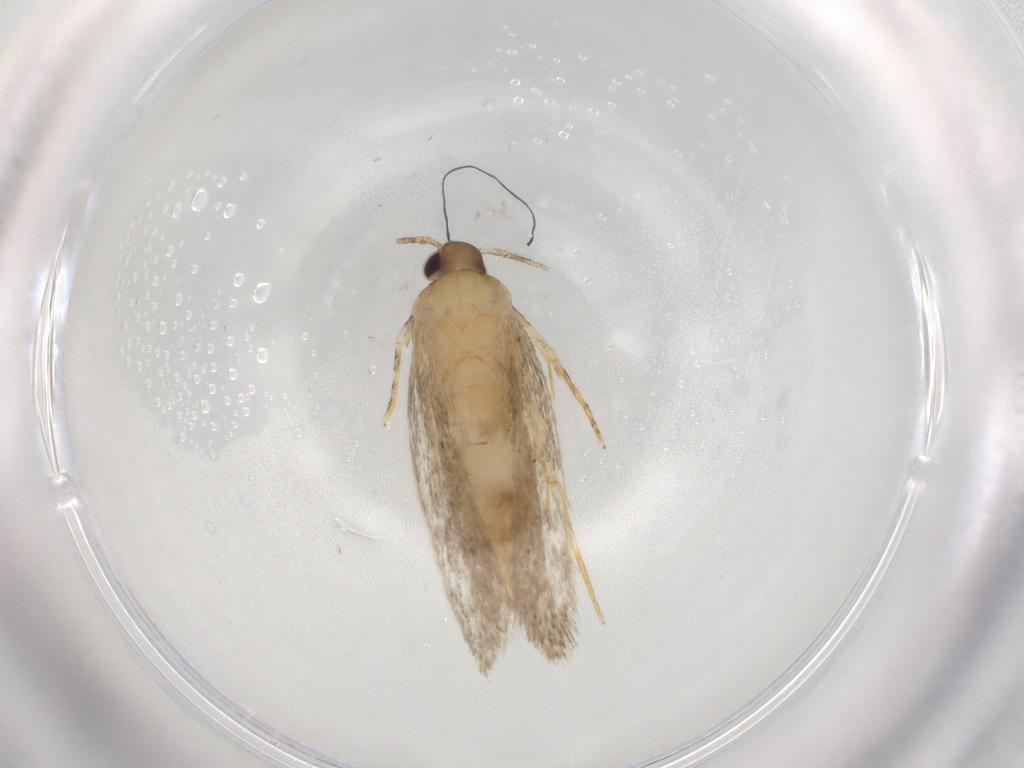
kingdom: Animalia
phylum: Arthropoda
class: Insecta
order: Lepidoptera
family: Autostichidae
